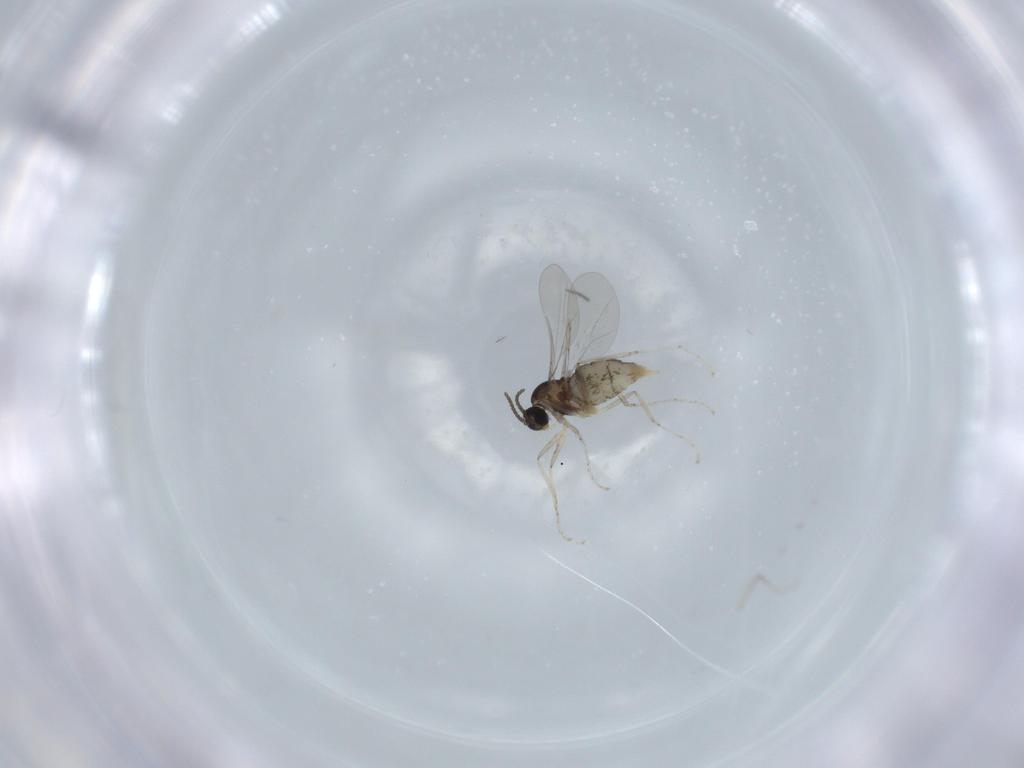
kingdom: Animalia
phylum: Arthropoda
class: Insecta
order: Diptera
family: Cecidomyiidae
